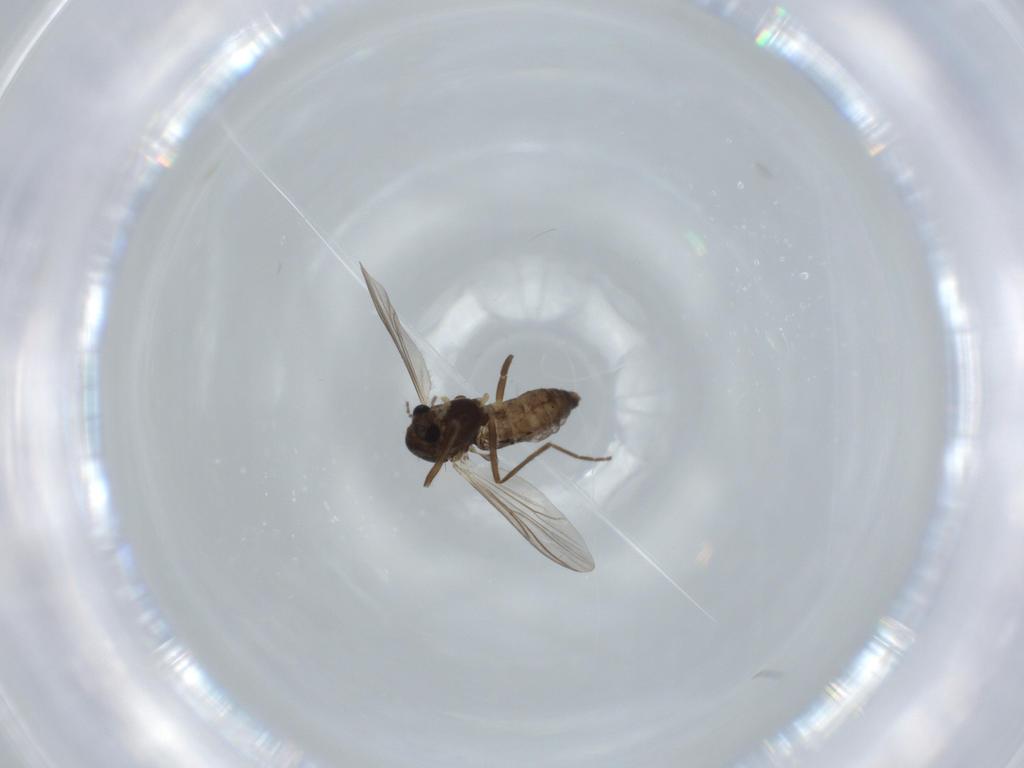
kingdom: Animalia
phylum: Arthropoda
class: Insecta
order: Diptera
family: Chironomidae
